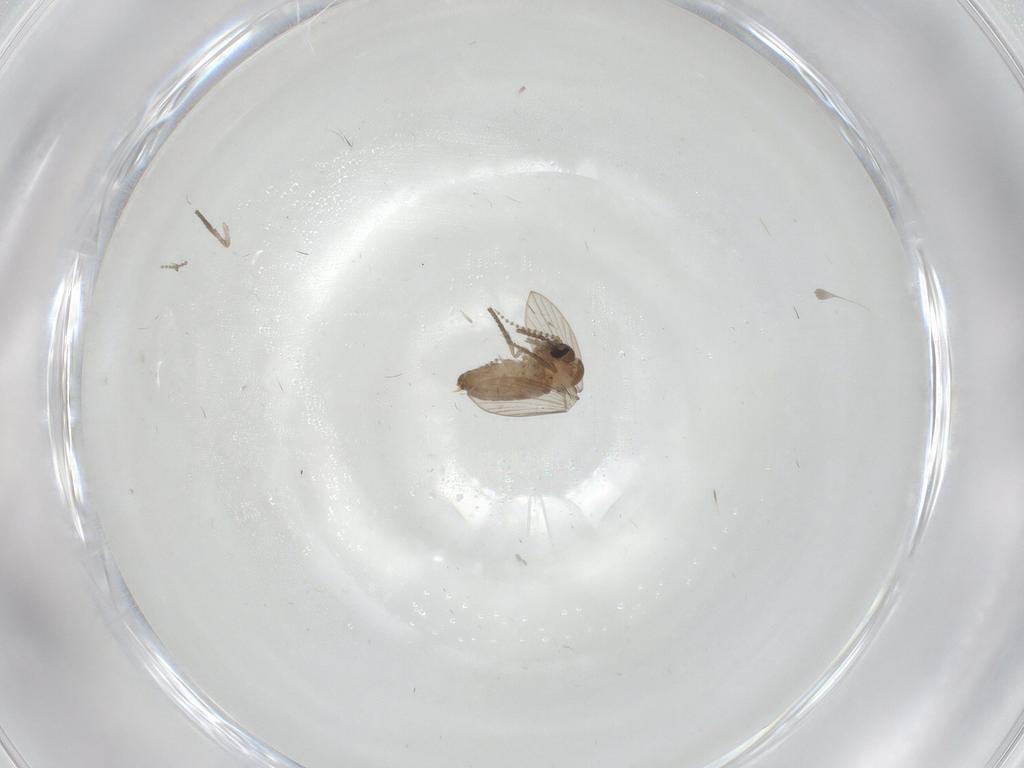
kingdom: Animalia
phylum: Arthropoda
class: Insecta
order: Diptera
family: Psychodidae
